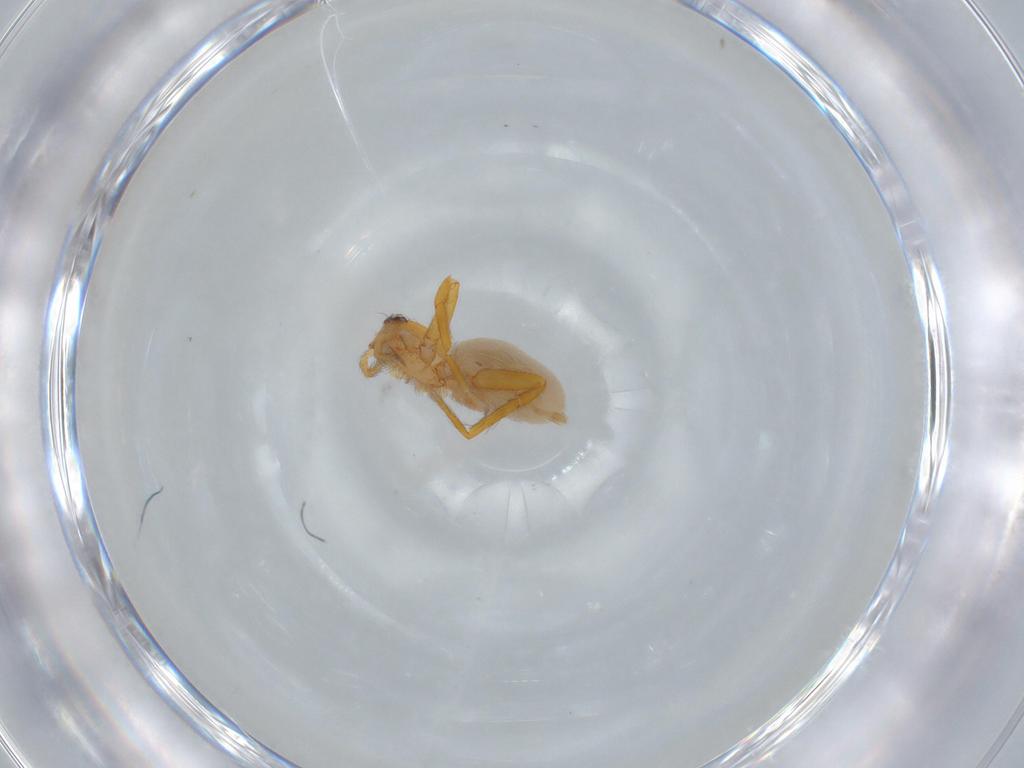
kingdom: Animalia
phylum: Arthropoda
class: Arachnida
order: Araneae
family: Oonopidae
